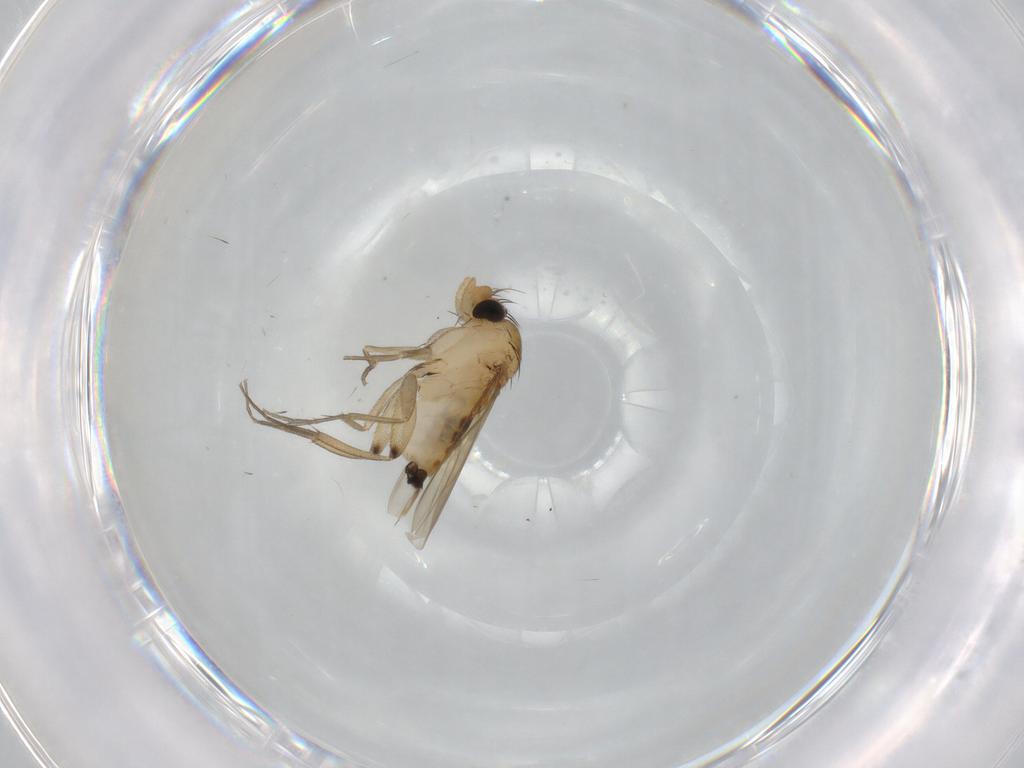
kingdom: Animalia
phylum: Arthropoda
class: Insecta
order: Diptera
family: Phoridae
